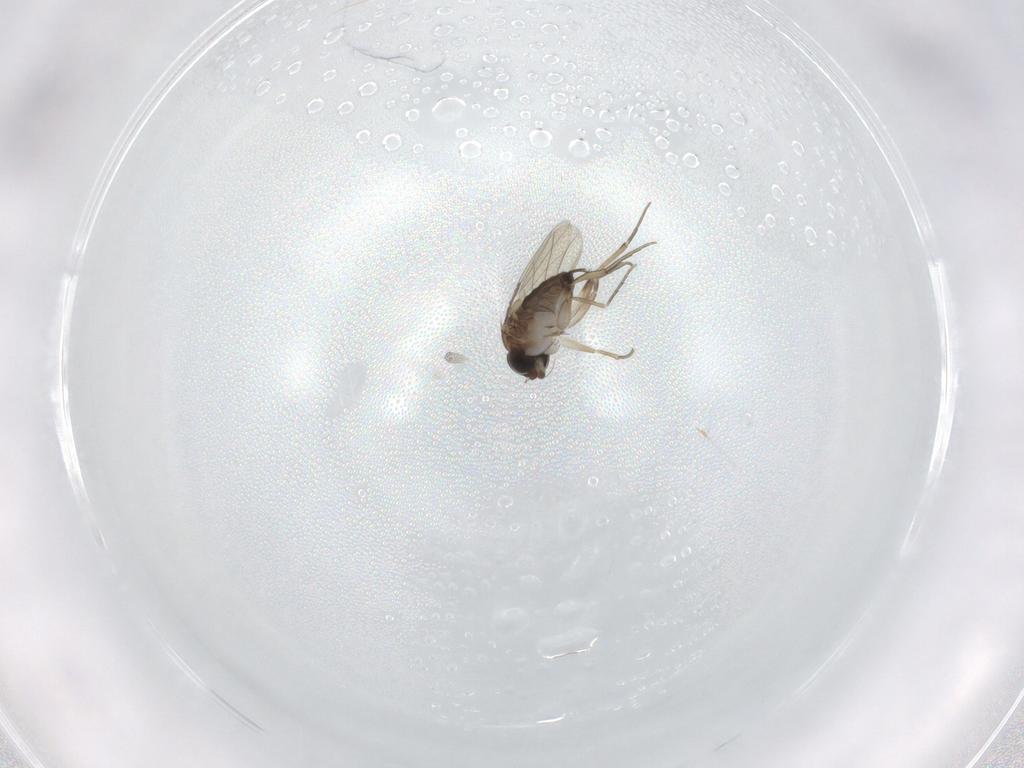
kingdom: Animalia
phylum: Arthropoda
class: Insecta
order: Diptera
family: Phoridae
